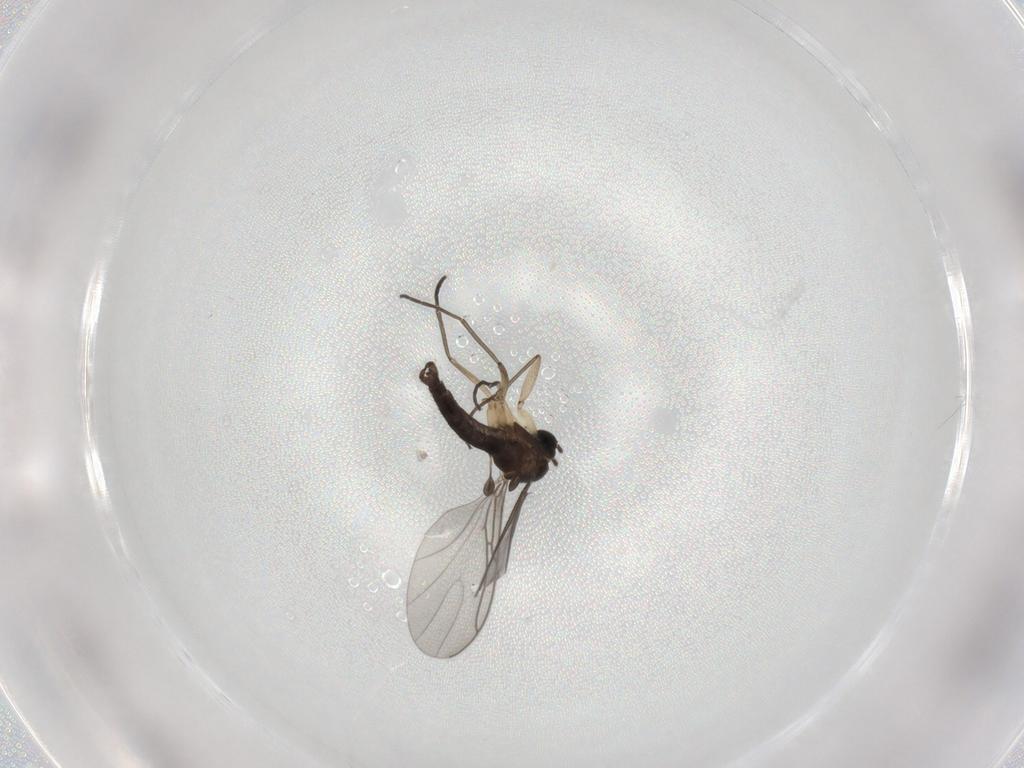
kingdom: Animalia
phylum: Arthropoda
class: Insecta
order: Diptera
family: Sciaridae
